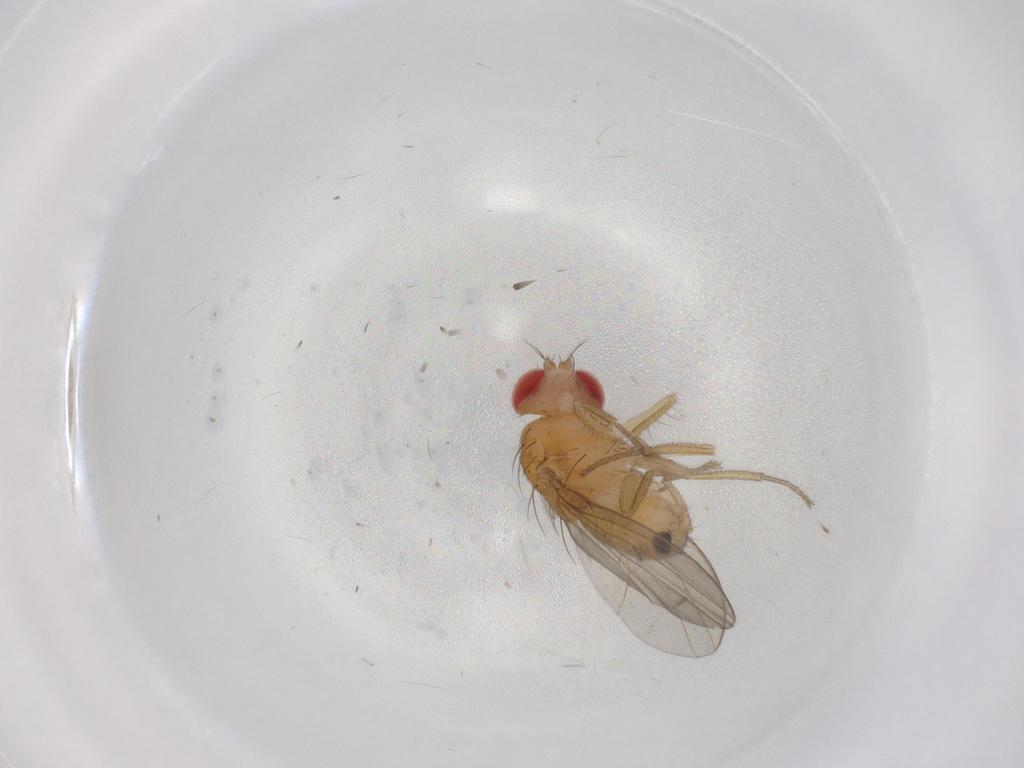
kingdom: Animalia
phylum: Arthropoda
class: Insecta
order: Diptera
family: Drosophilidae
